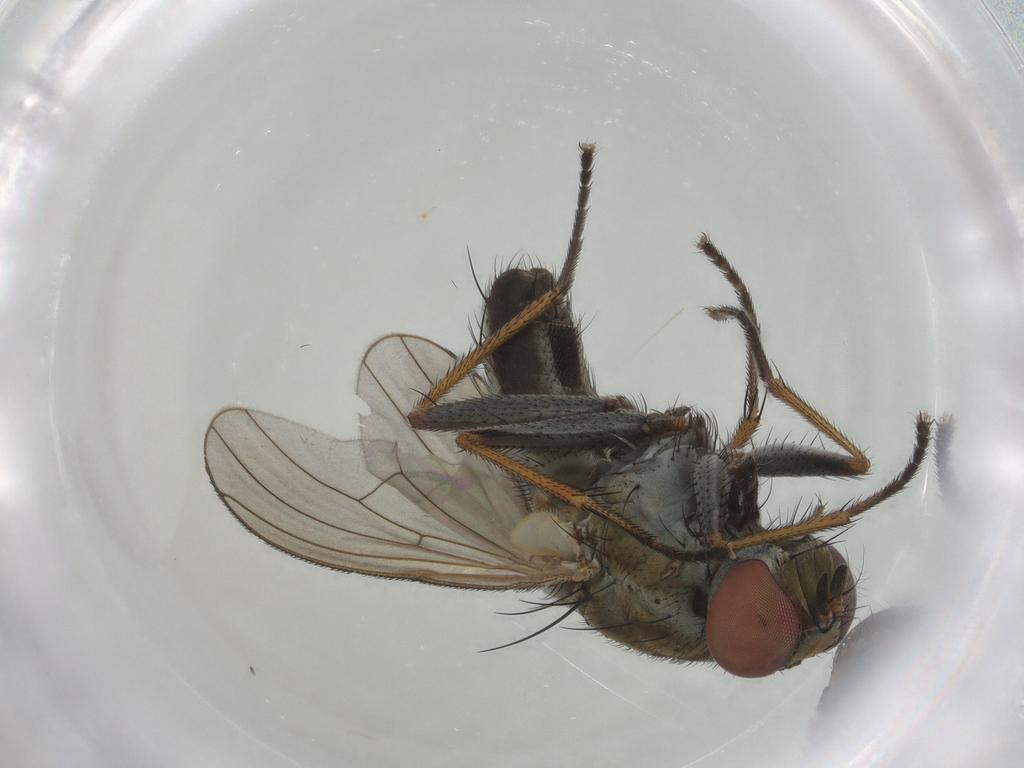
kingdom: Animalia
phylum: Arthropoda
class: Insecta
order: Diptera
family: Muscidae
